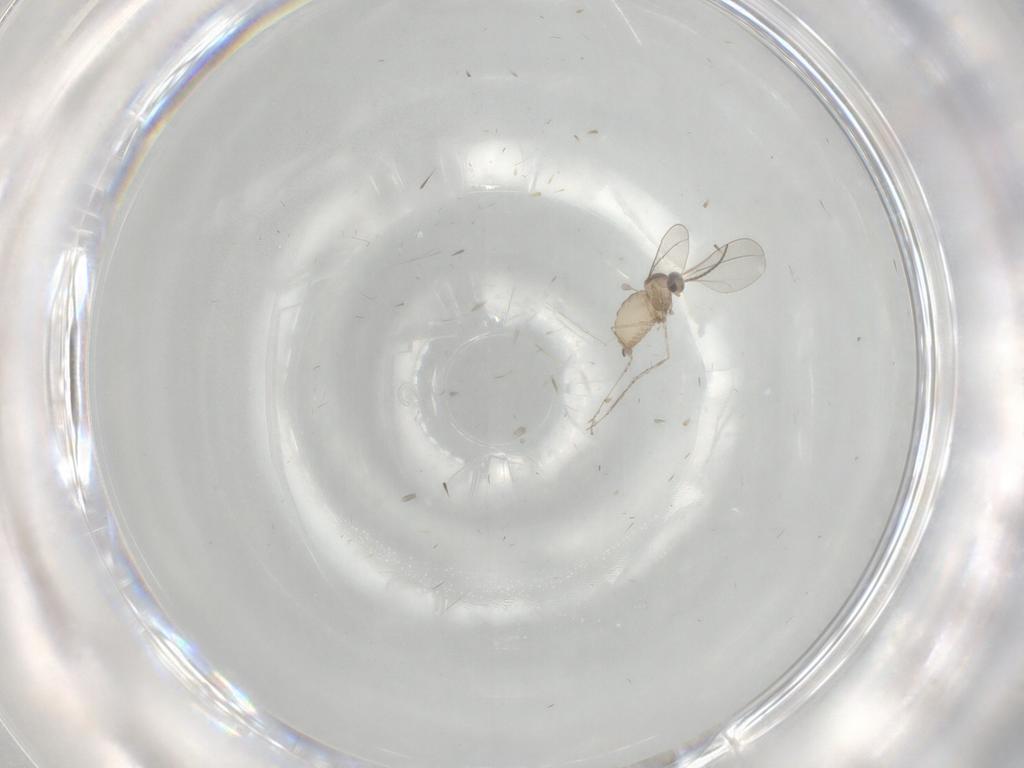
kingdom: Animalia
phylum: Arthropoda
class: Insecta
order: Diptera
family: Cecidomyiidae
